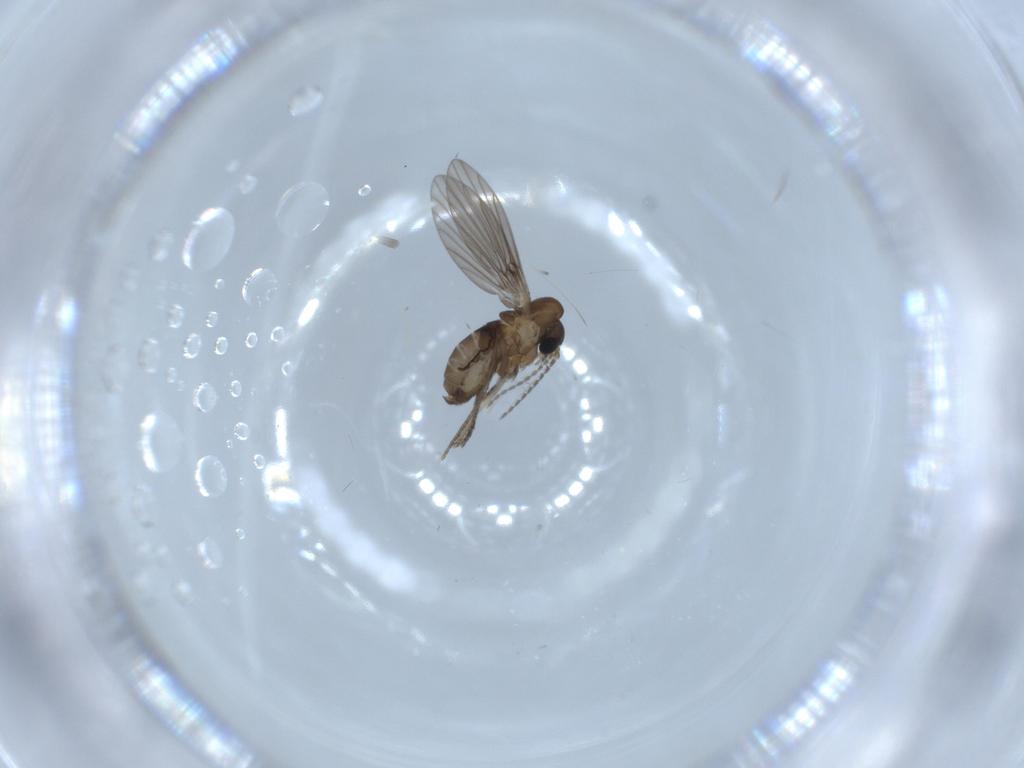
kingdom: Animalia
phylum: Arthropoda
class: Insecta
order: Diptera
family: Psychodidae
